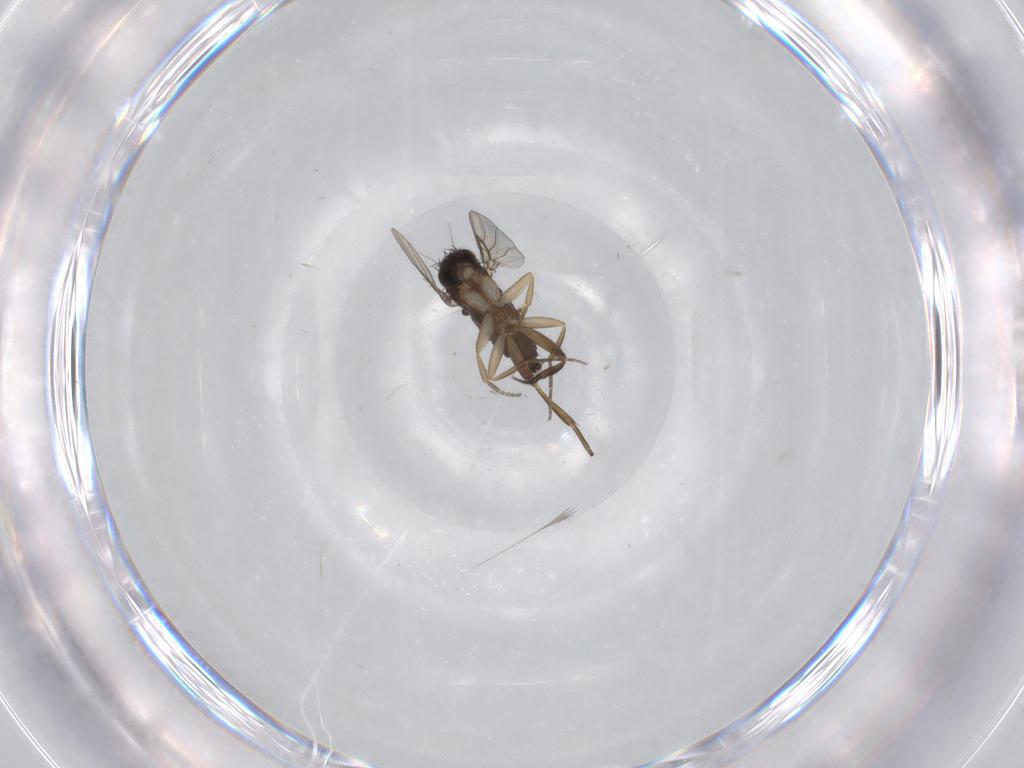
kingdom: Animalia
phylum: Arthropoda
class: Insecta
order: Diptera
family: Phoridae
